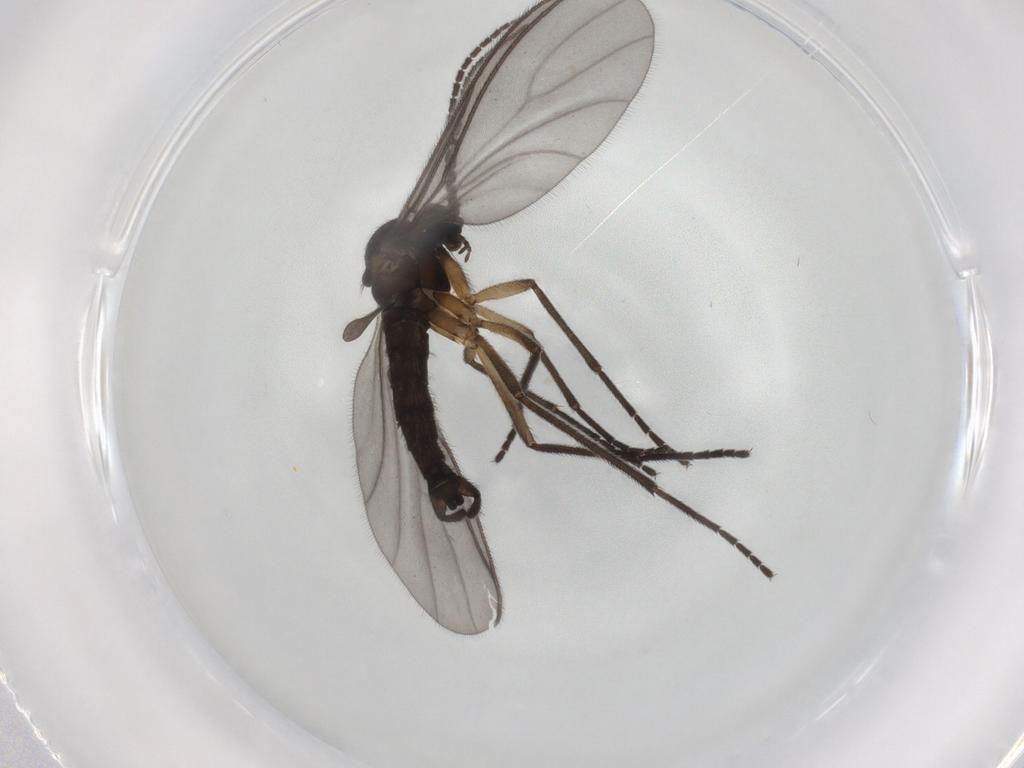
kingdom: Animalia
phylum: Arthropoda
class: Insecta
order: Diptera
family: Sciaridae
